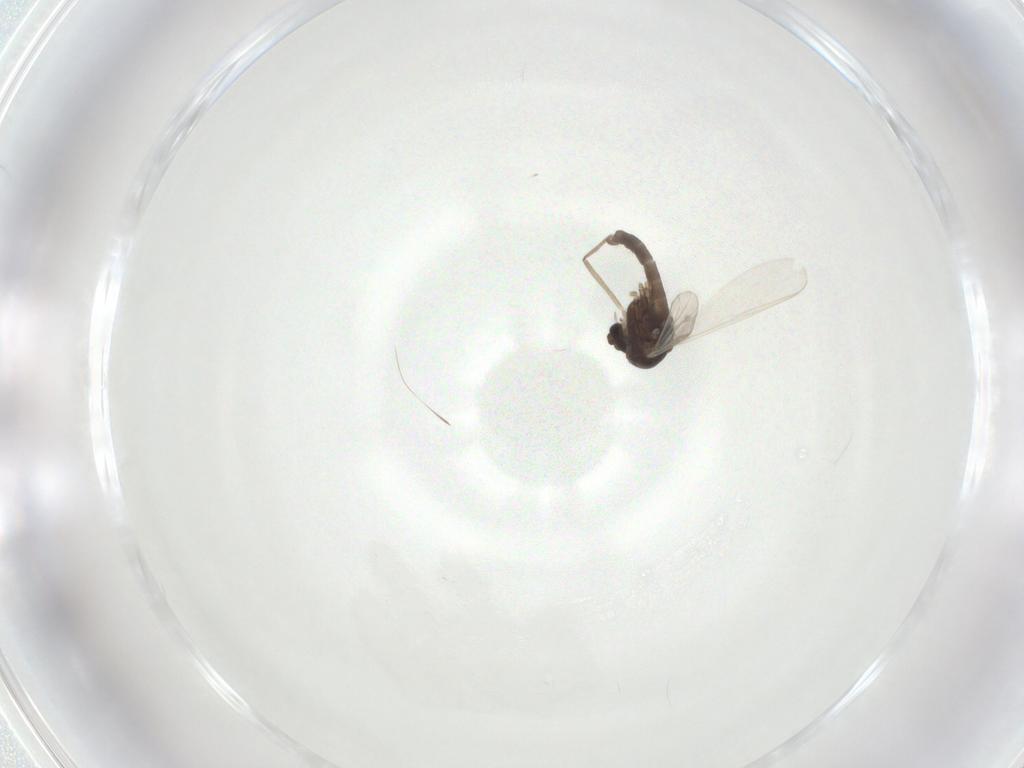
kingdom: Animalia
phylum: Arthropoda
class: Insecta
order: Diptera
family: Chironomidae
